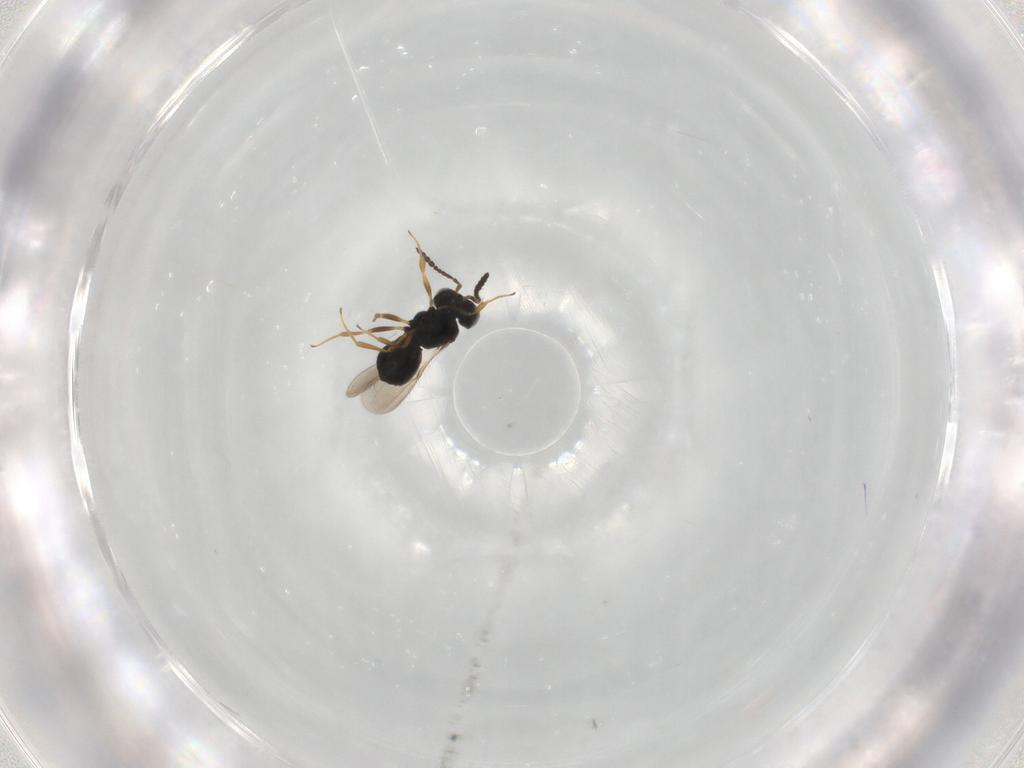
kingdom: Animalia
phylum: Arthropoda
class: Insecta
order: Hymenoptera
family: Scelionidae
